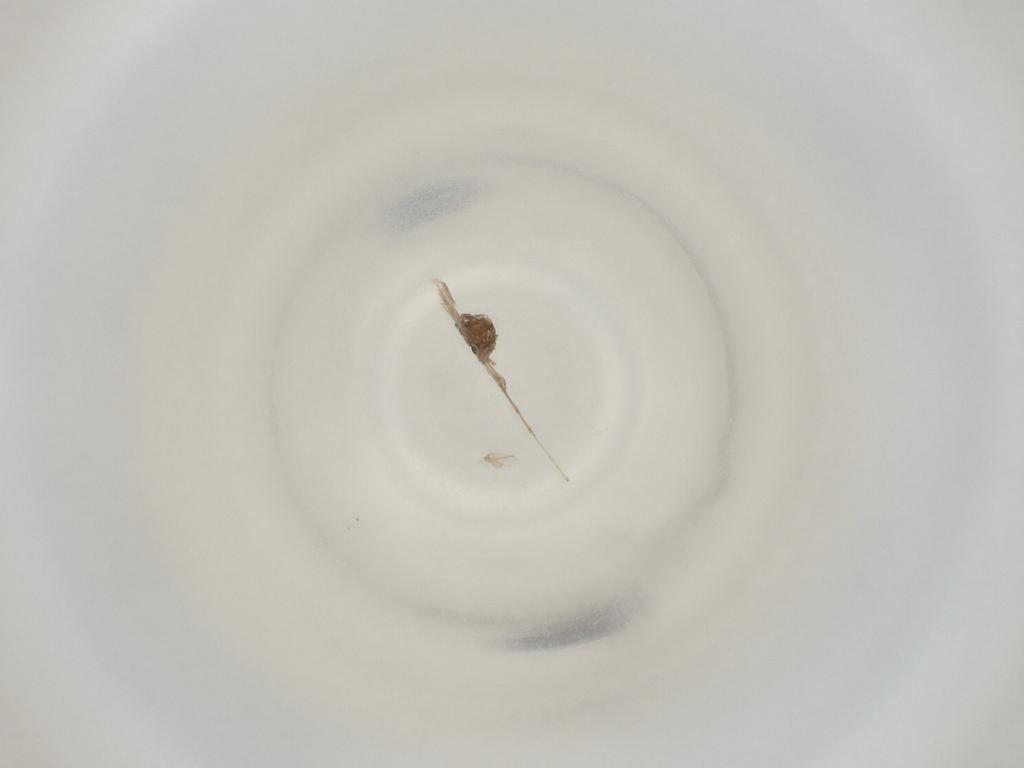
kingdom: Animalia
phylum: Arthropoda
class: Insecta
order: Diptera
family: Cecidomyiidae
